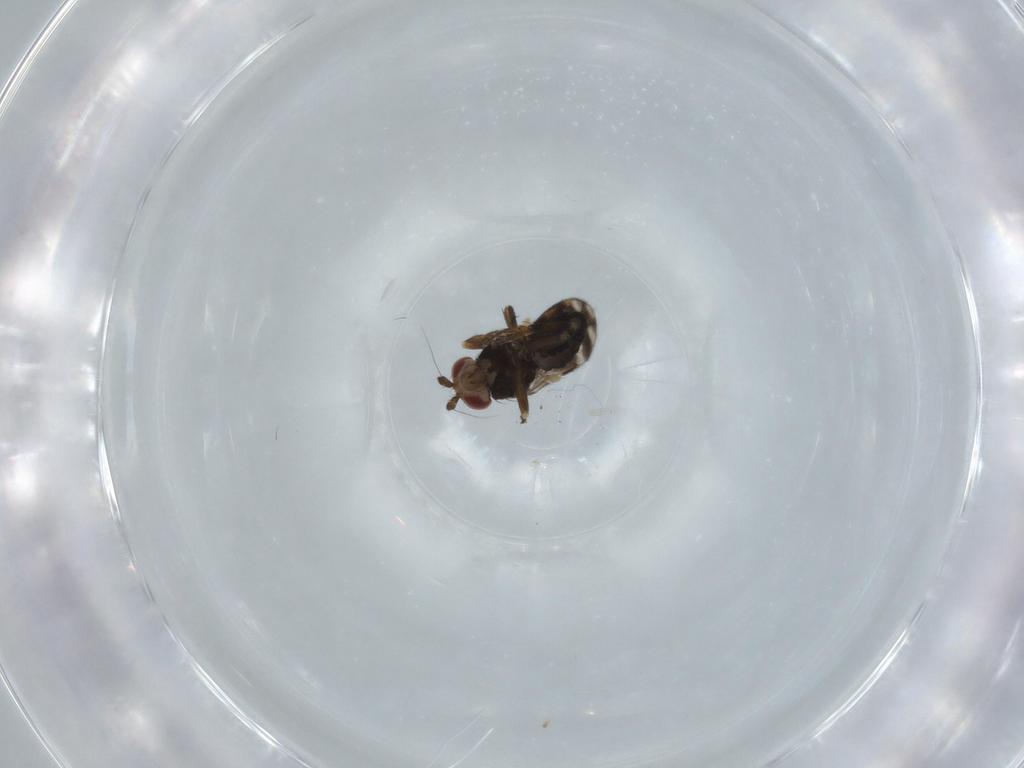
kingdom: Animalia
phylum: Arthropoda
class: Insecta
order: Diptera
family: Sphaeroceridae
